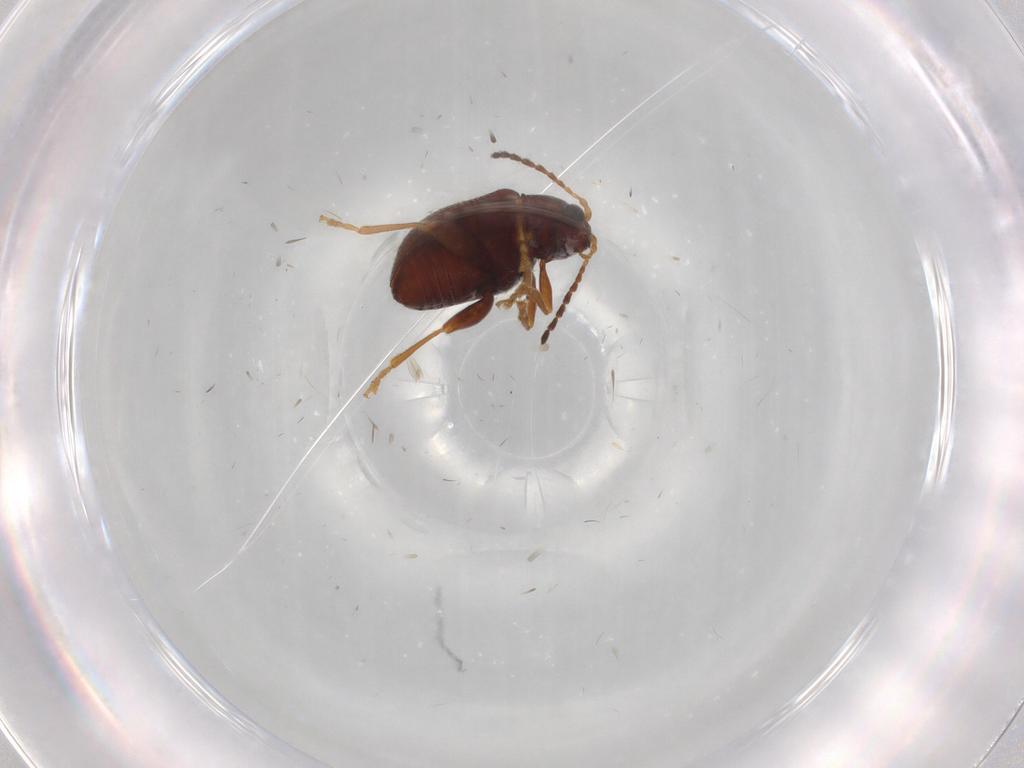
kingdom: Animalia
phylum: Arthropoda
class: Insecta
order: Coleoptera
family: Chrysomelidae
